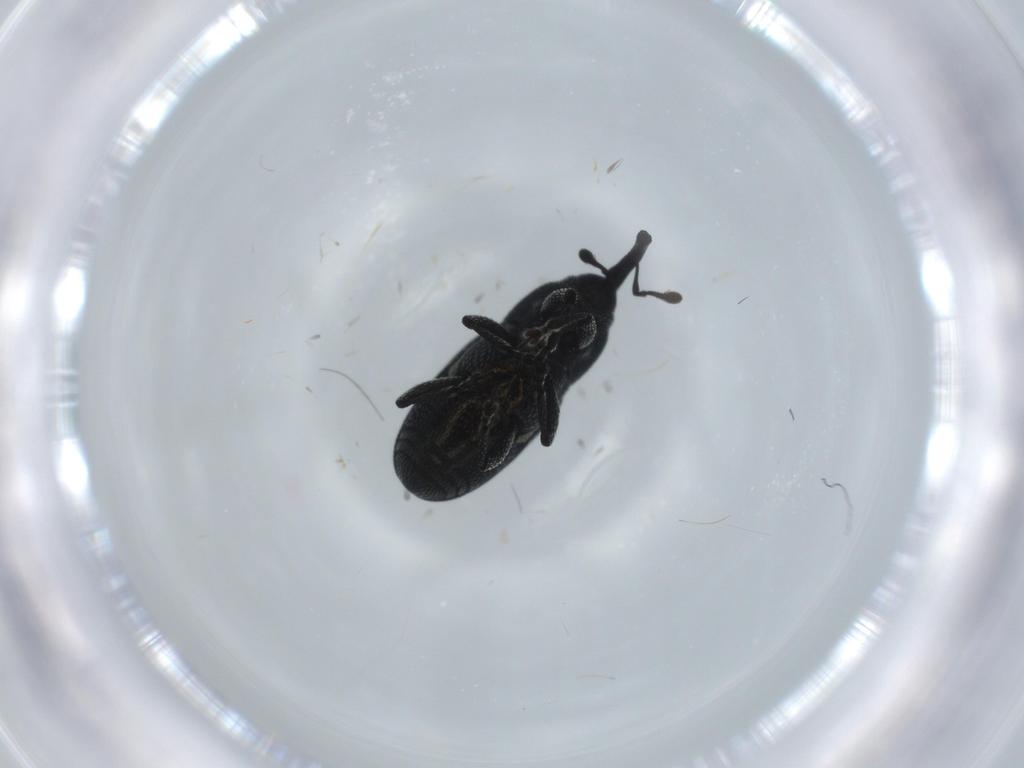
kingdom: Animalia
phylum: Arthropoda
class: Insecta
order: Coleoptera
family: Curculionidae
